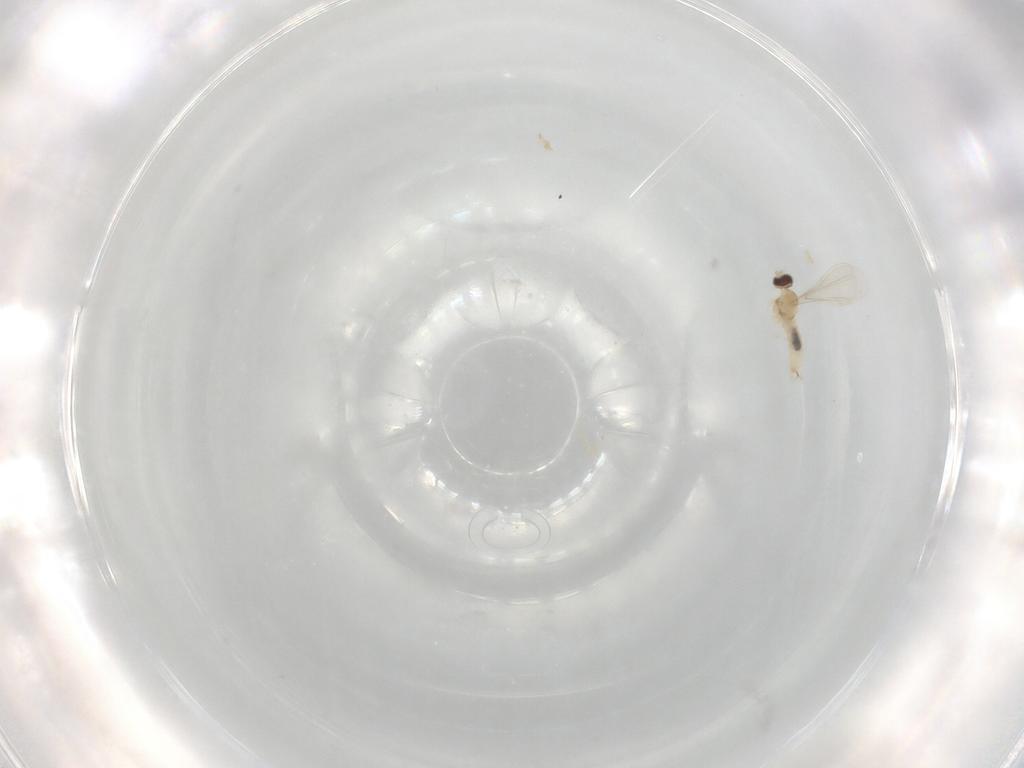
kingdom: Animalia
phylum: Arthropoda
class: Insecta
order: Diptera
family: Cecidomyiidae
